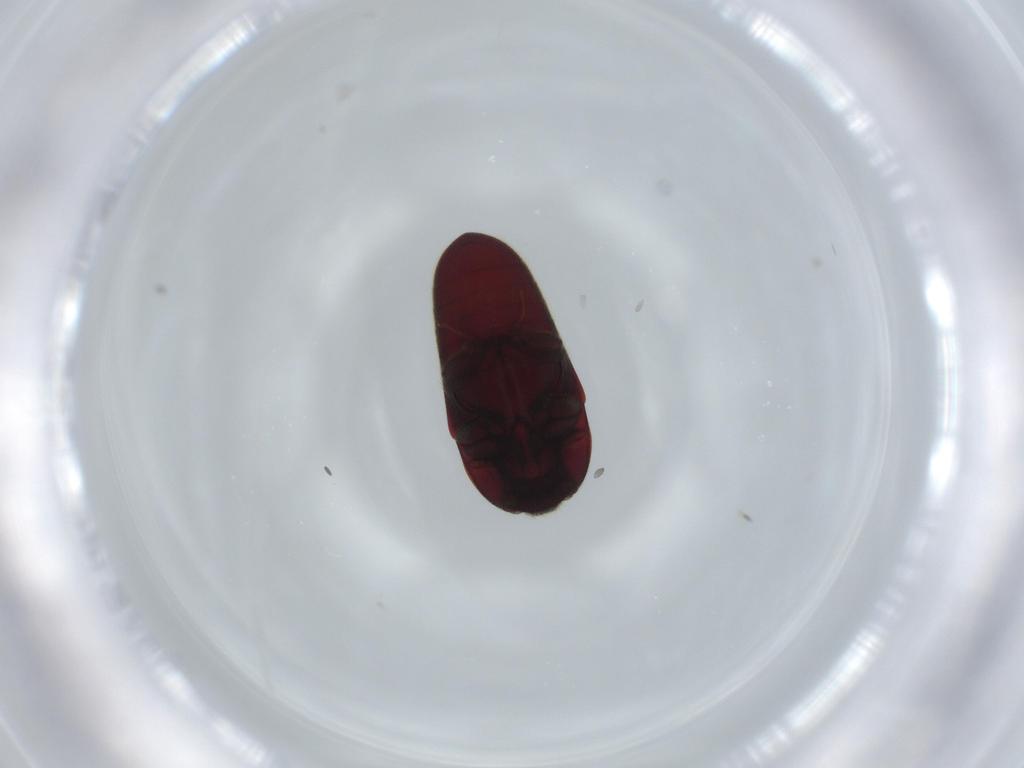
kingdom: Animalia
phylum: Arthropoda
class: Insecta
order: Coleoptera
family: Throscidae
